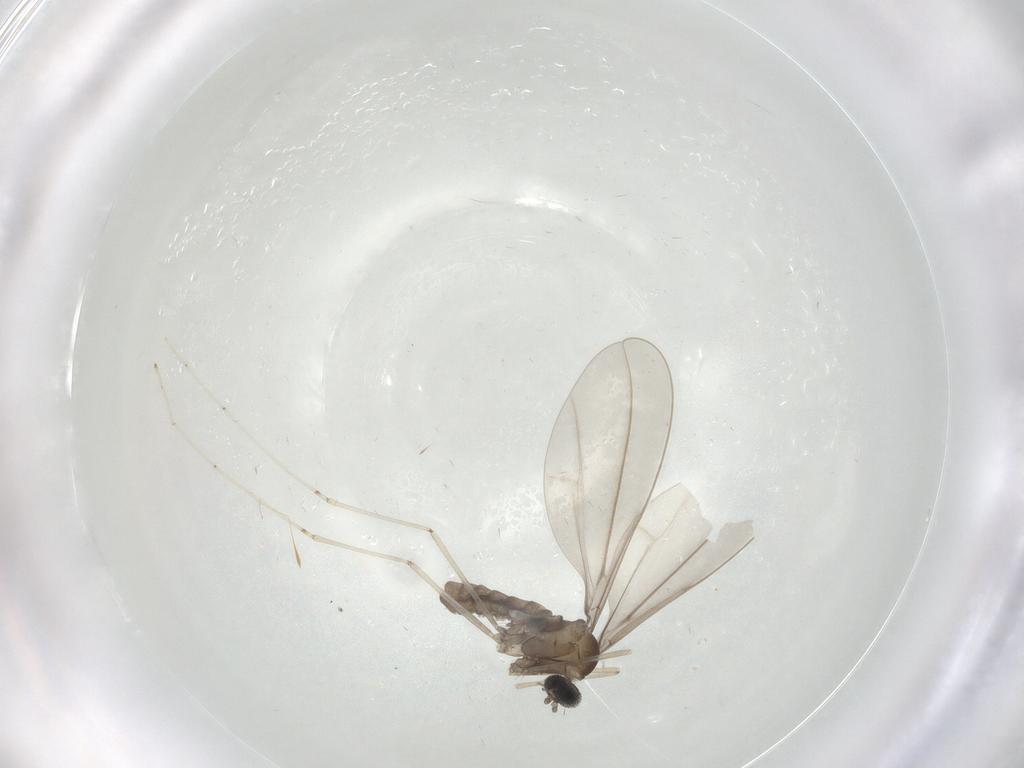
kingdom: Animalia
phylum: Arthropoda
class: Insecta
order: Diptera
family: Cecidomyiidae
